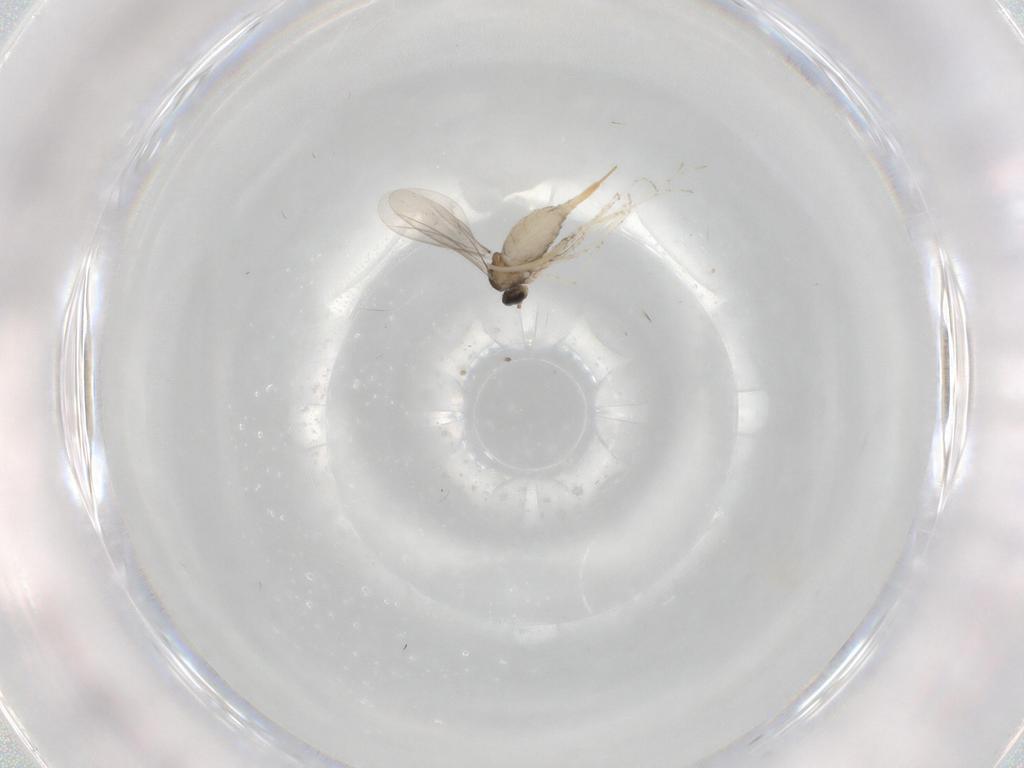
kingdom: Animalia
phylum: Arthropoda
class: Insecta
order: Diptera
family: Cecidomyiidae
